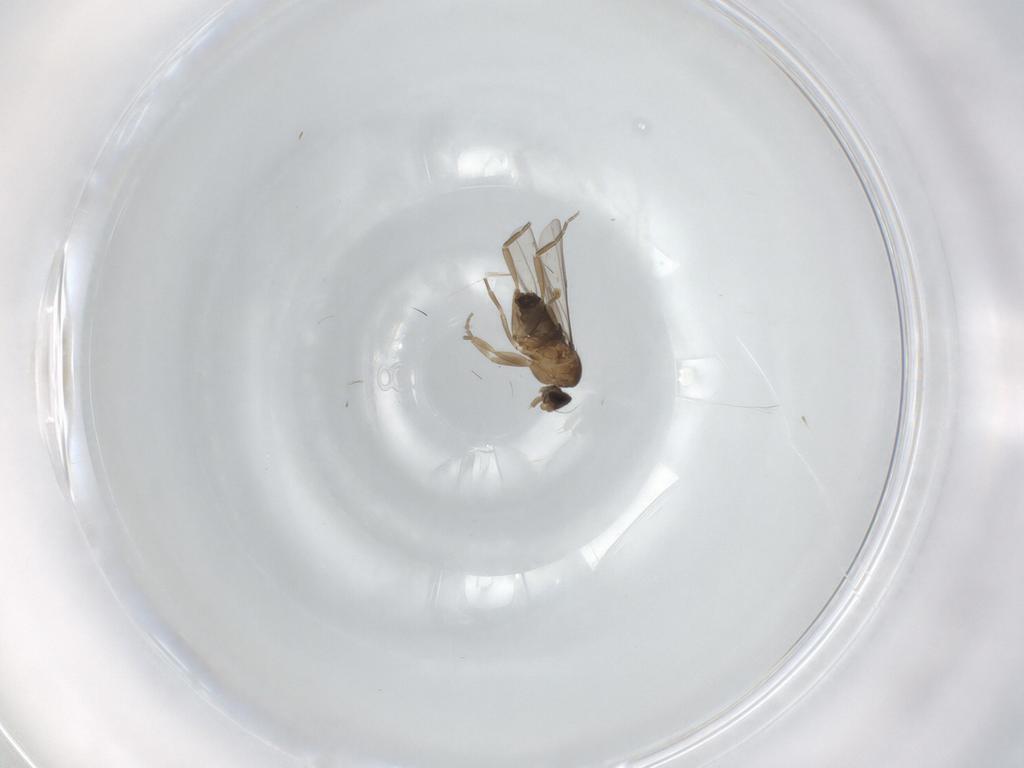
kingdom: Animalia
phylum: Arthropoda
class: Insecta
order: Diptera
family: Phoridae
